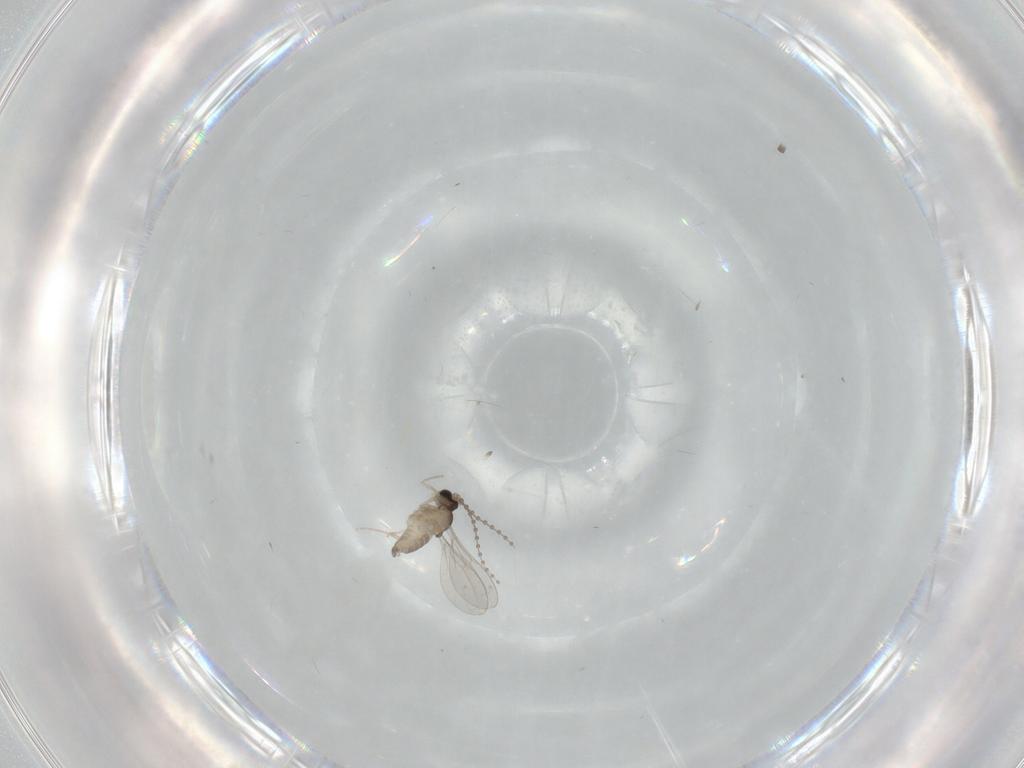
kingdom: Animalia
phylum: Arthropoda
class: Insecta
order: Diptera
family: Cecidomyiidae
